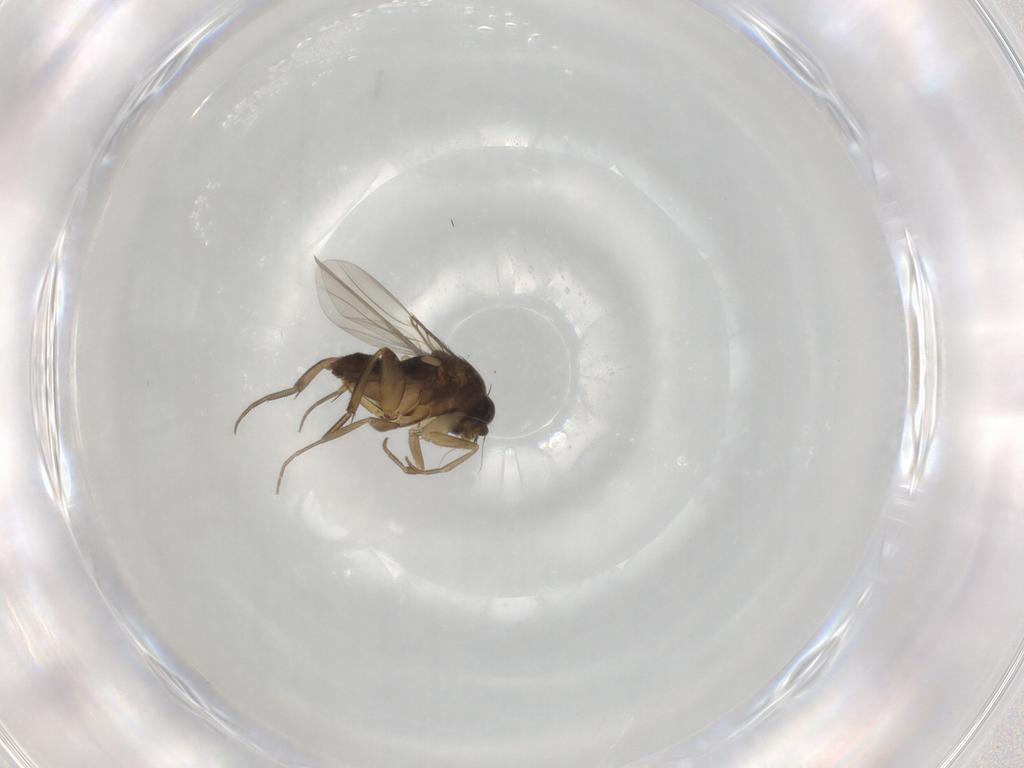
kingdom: Animalia
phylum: Arthropoda
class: Insecta
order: Diptera
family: Phoridae
